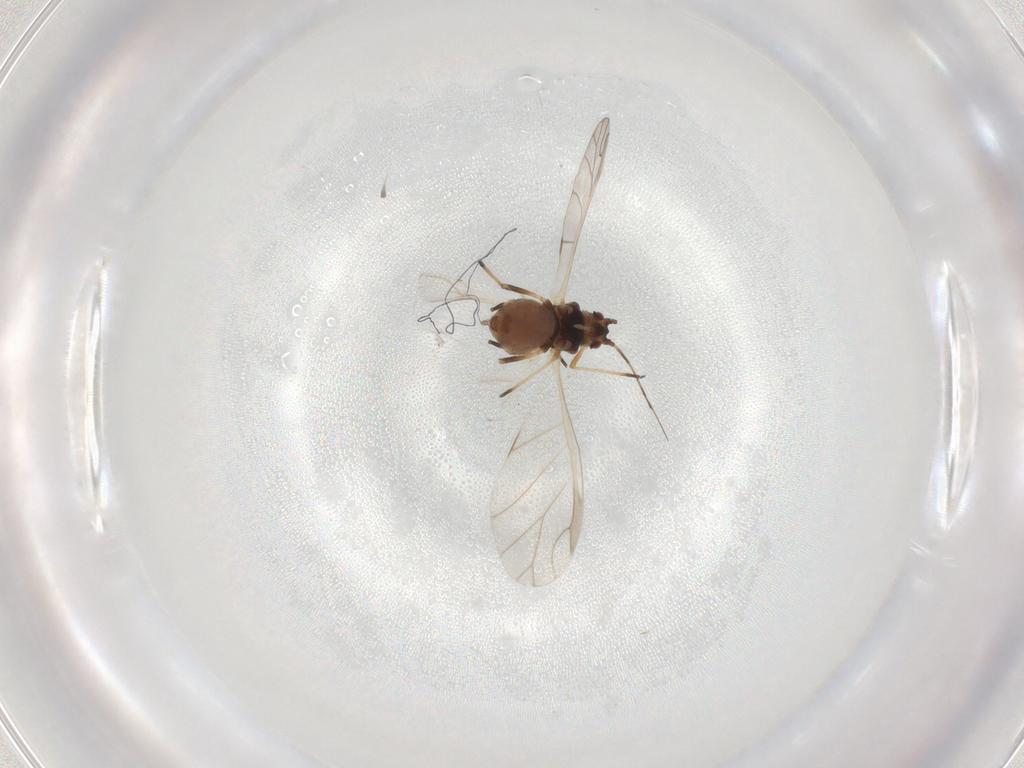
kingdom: Animalia
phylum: Arthropoda
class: Insecta
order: Hemiptera
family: Aphididae
